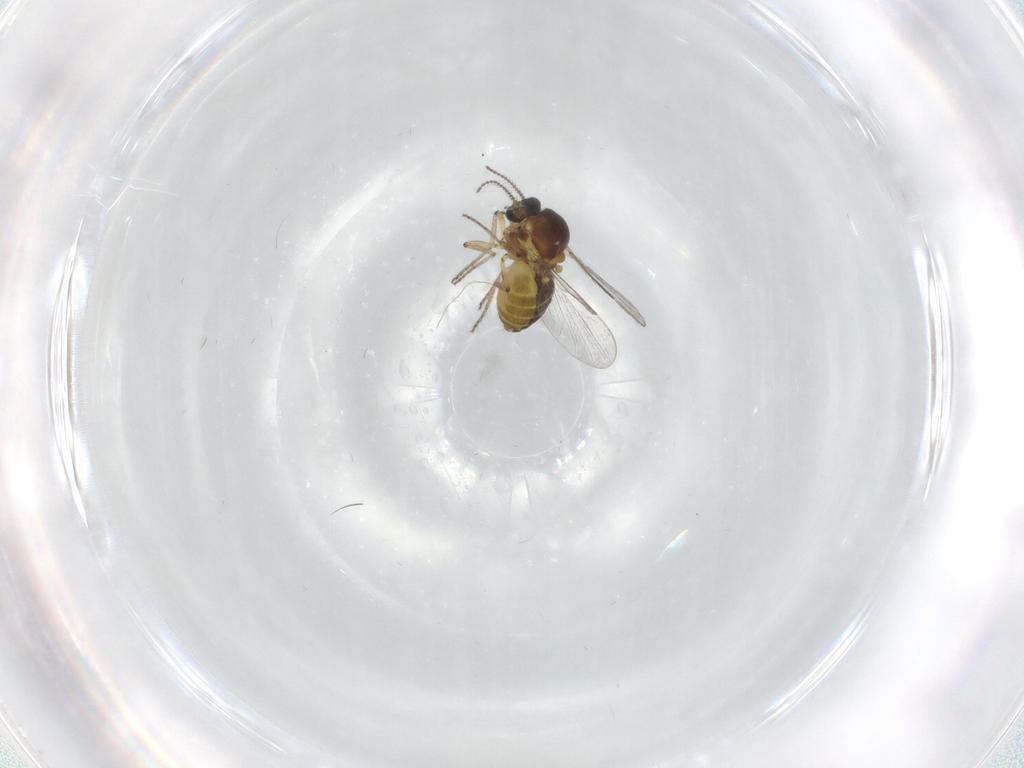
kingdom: Animalia
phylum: Arthropoda
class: Insecta
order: Diptera
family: Ceratopogonidae
